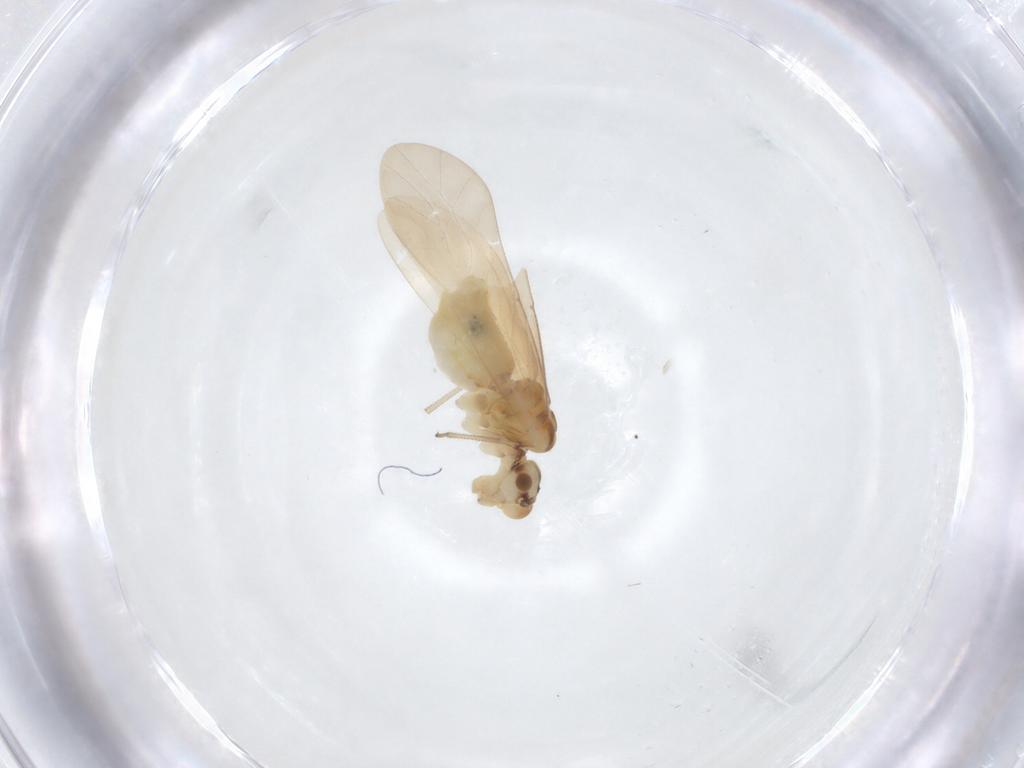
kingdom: Animalia
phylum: Arthropoda
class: Insecta
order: Psocodea
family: Caeciliusidae
